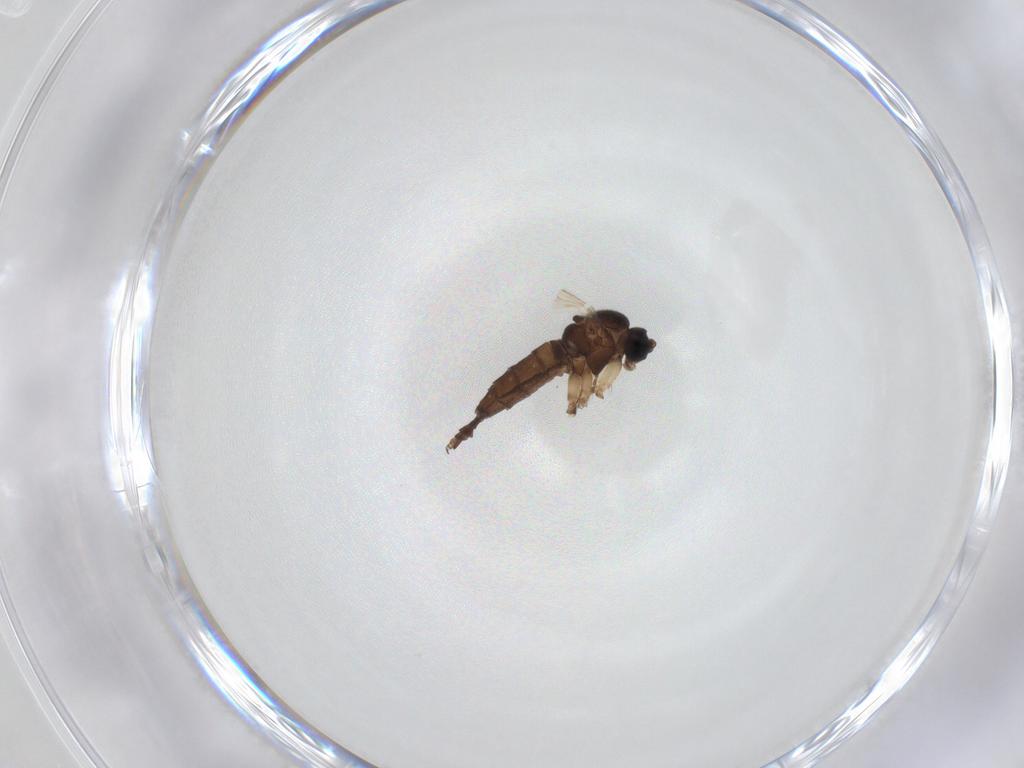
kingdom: Animalia
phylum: Arthropoda
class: Insecta
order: Diptera
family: Sciaridae
